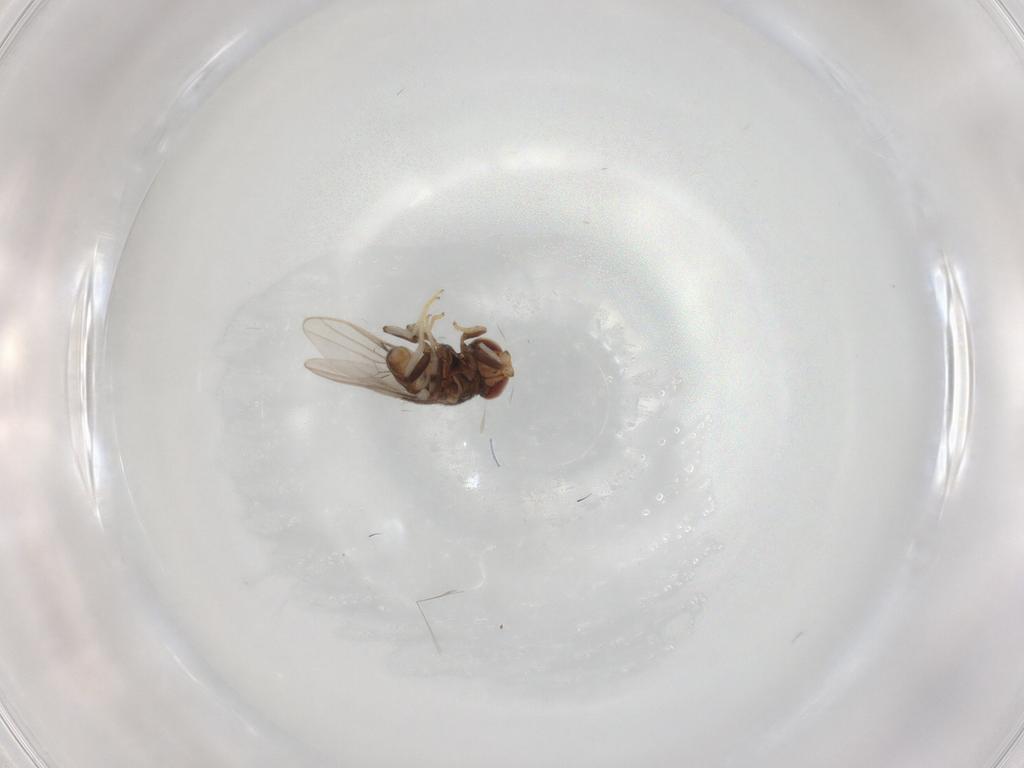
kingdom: Animalia
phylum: Arthropoda
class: Insecta
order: Diptera
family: Chloropidae
